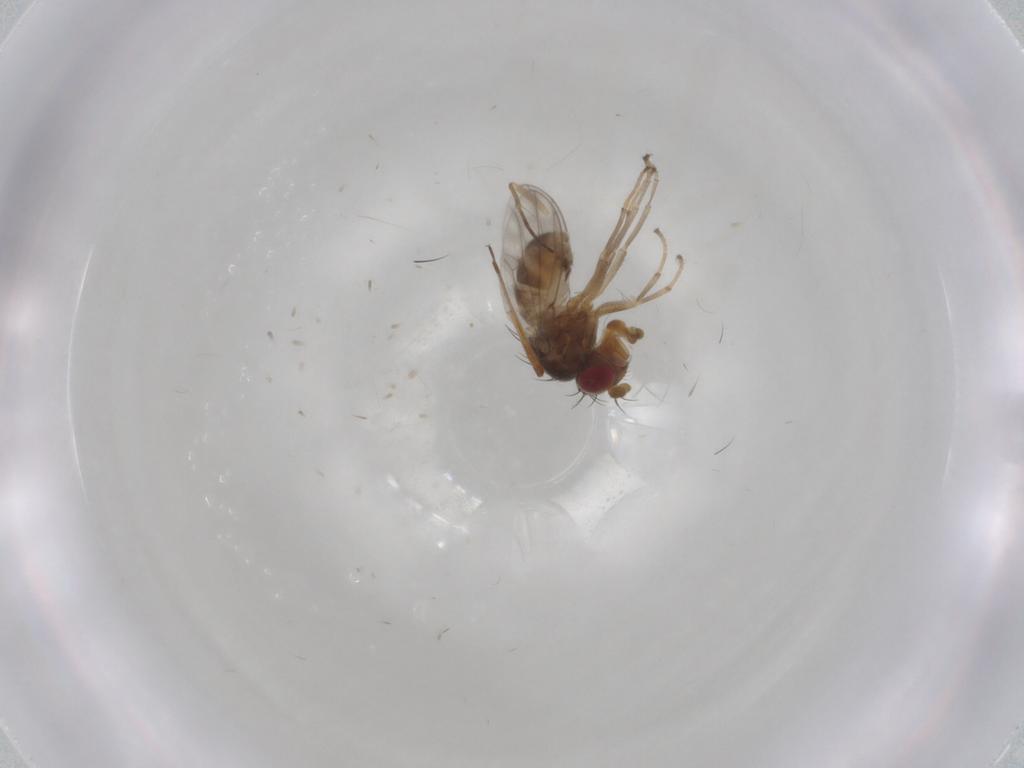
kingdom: Animalia
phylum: Arthropoda
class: Insecta
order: Diptera
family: Ephydridae
